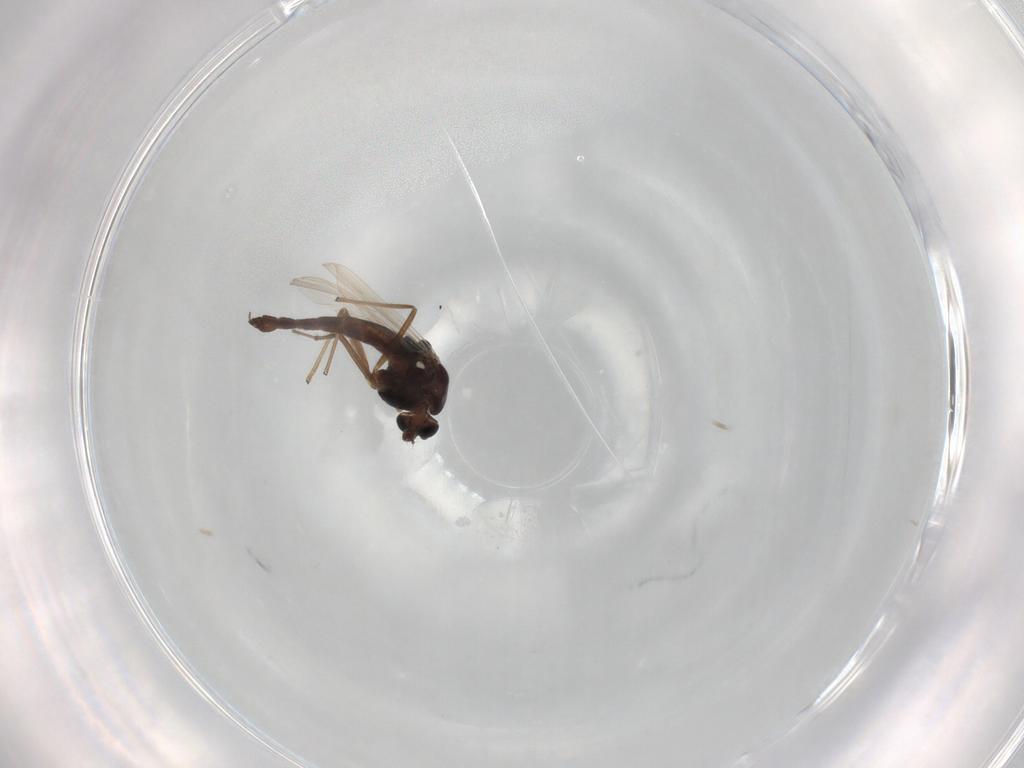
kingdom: Animalia
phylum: Arthropoda
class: Insecta
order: Diptera
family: Chironomidae
